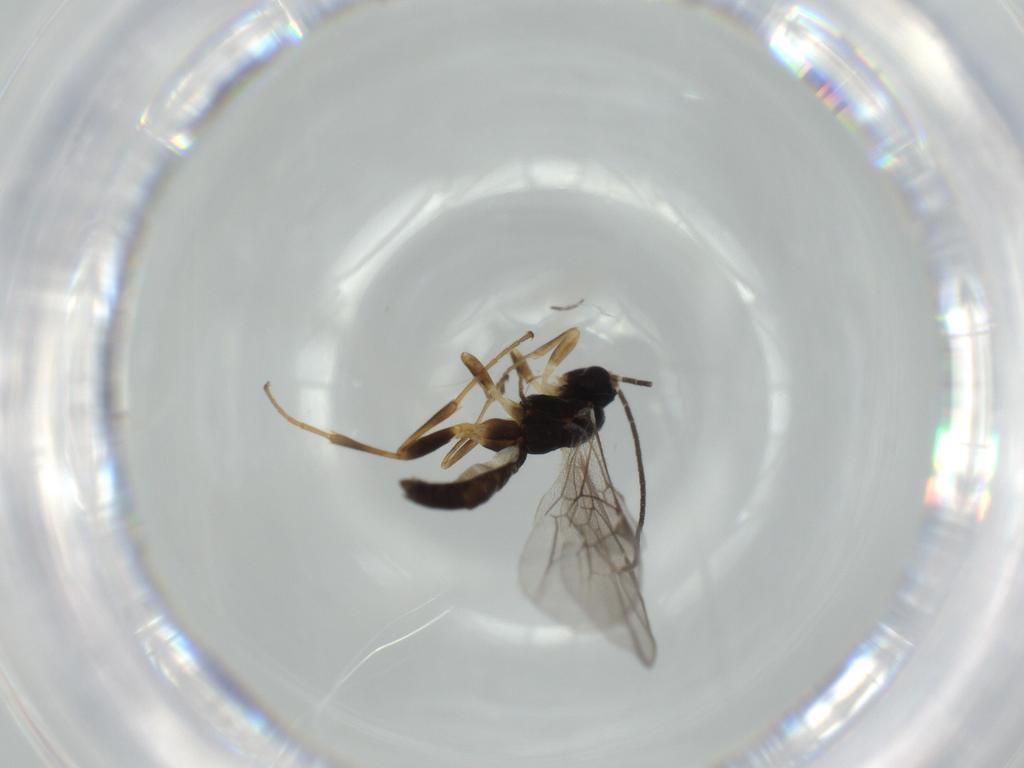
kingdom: Animalia
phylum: Arthropoda
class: Insecta
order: Hymenoptera
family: Ichneumonidae
